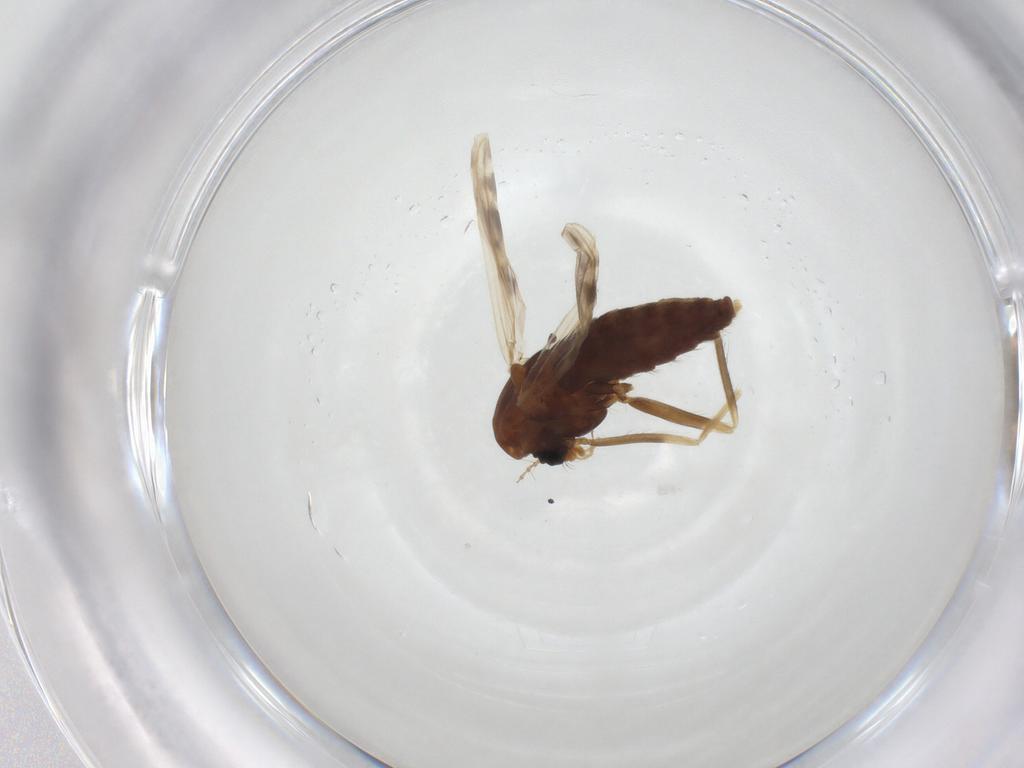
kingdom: Animalia
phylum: Arthropoda
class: Insecta
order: Diptera
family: Chironomidae
